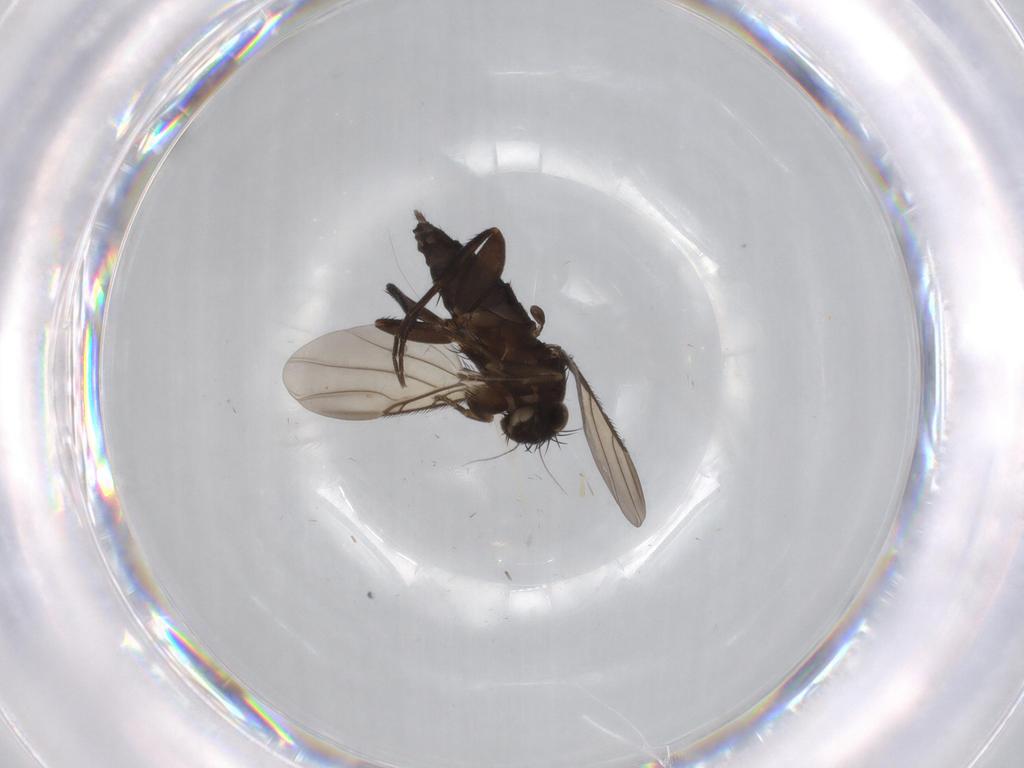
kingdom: Animalia
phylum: Arthropoda
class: Insecta
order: Diptera
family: Phoridae
